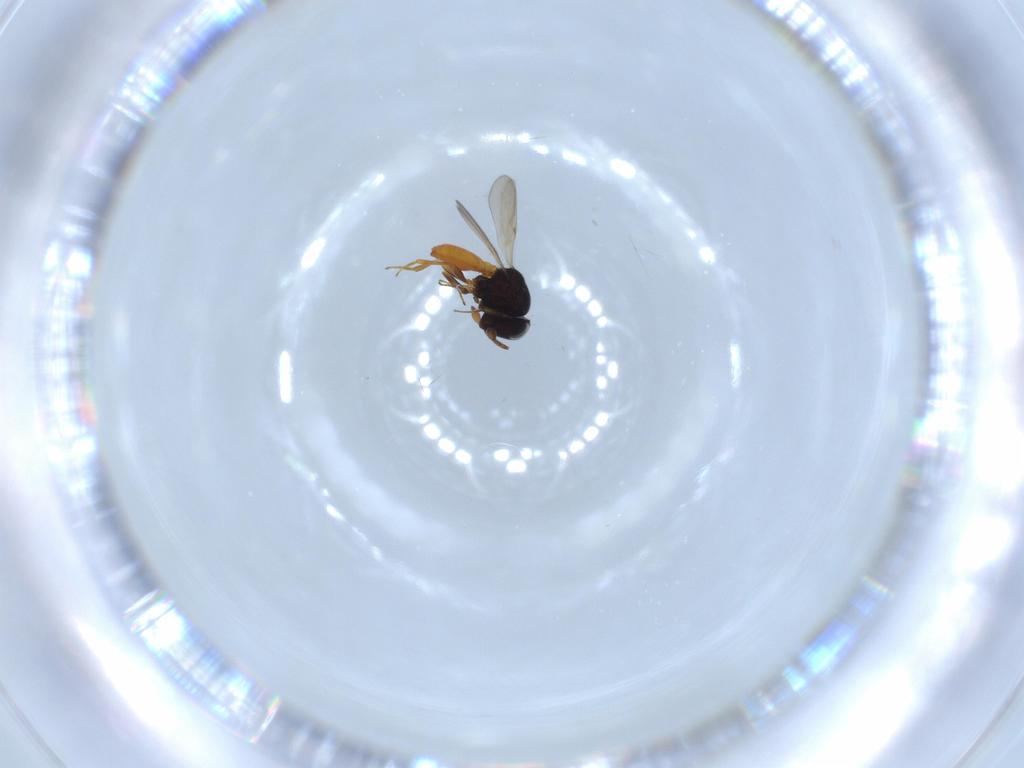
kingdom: Animalia
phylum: Arthropoda
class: Insecta
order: Hymenoptera
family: Scelionidae
